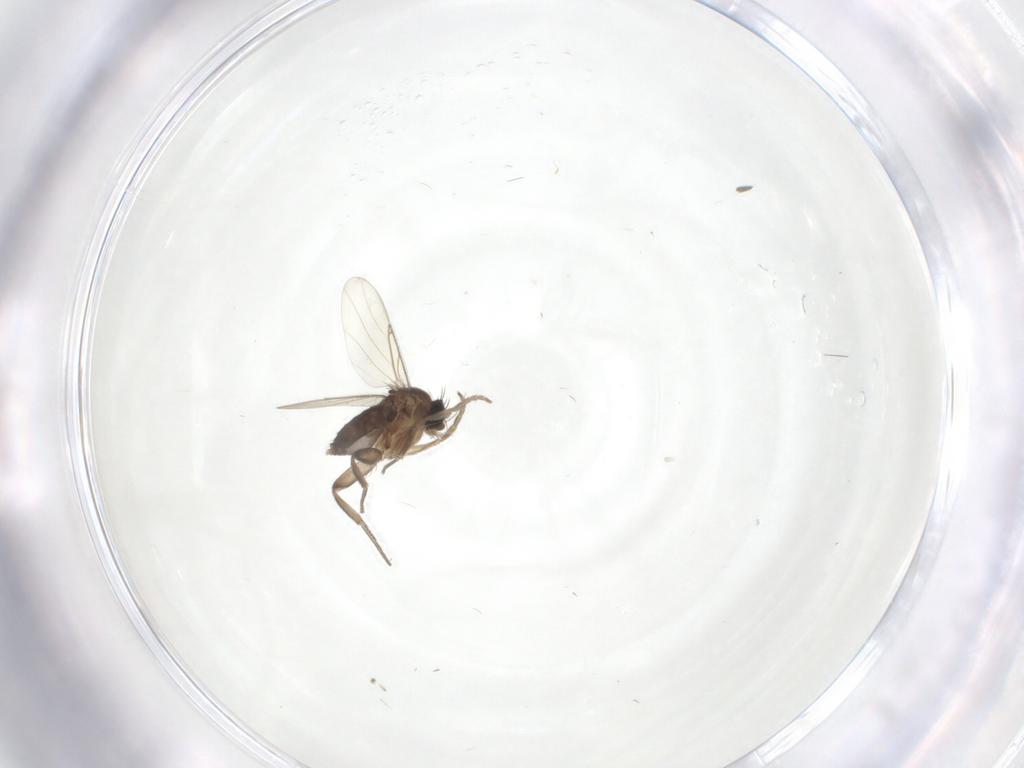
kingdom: Animalia
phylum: Arthropoda
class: Insecta
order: Diptera
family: Phoridae
